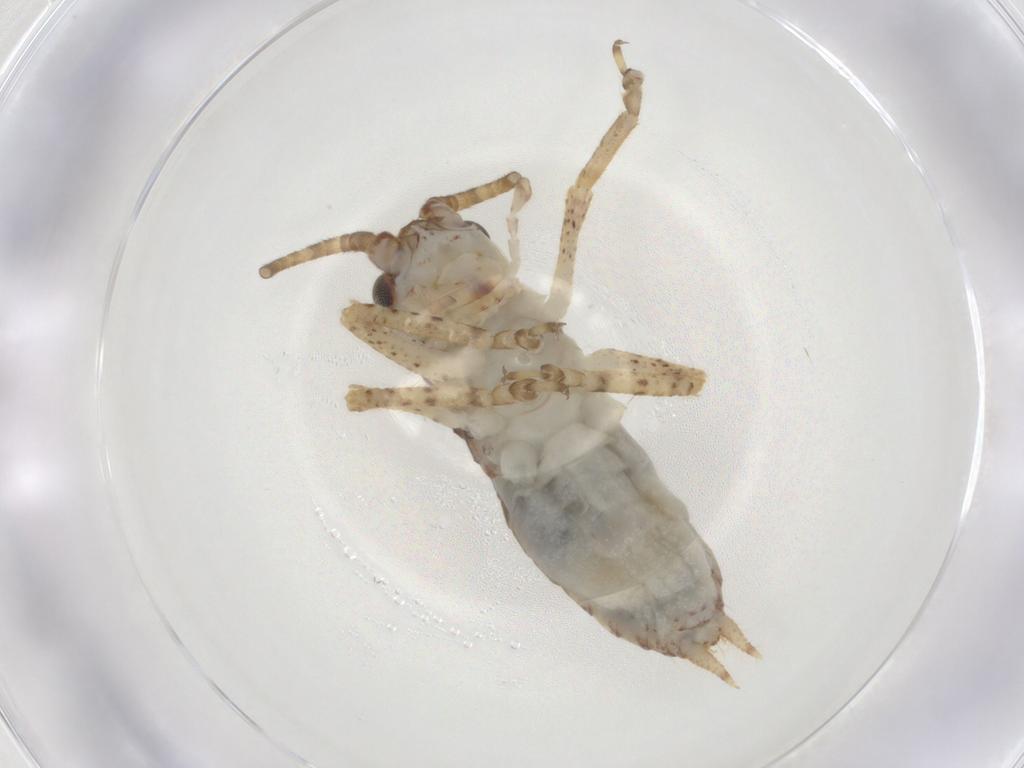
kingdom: Animalia
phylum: Arthropoda
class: Insecta
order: Orthoptera
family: Gryllidae
